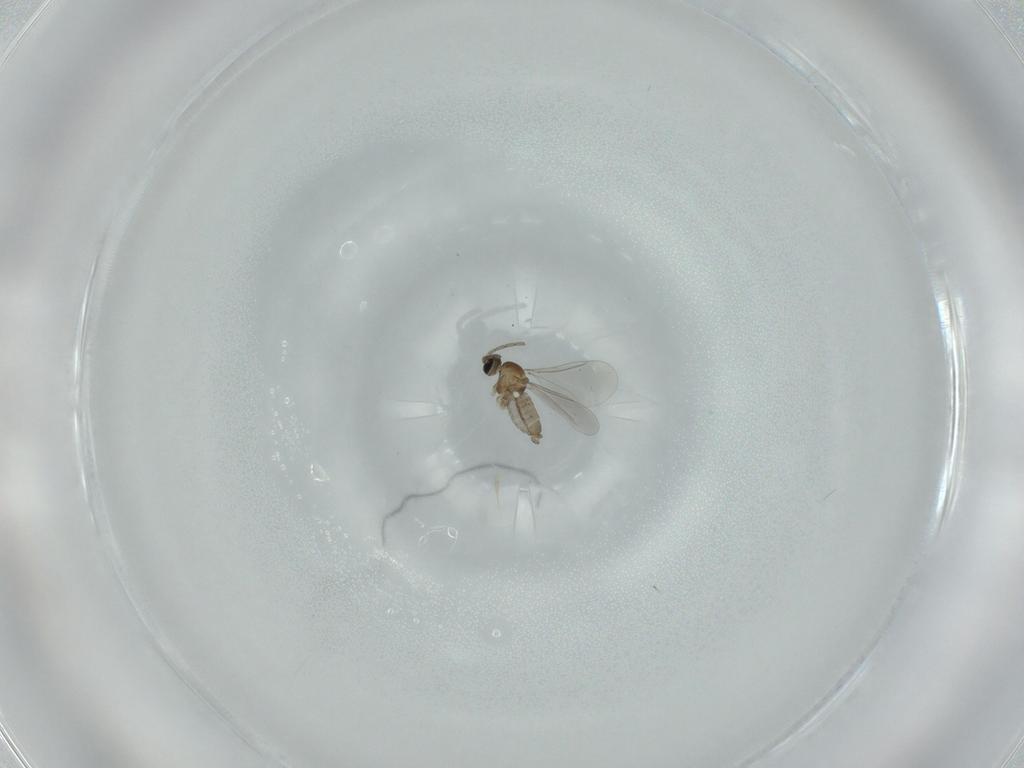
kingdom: Animalia
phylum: Arthropoda
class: Insecta
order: Diptera
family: Cecidomyiidae
